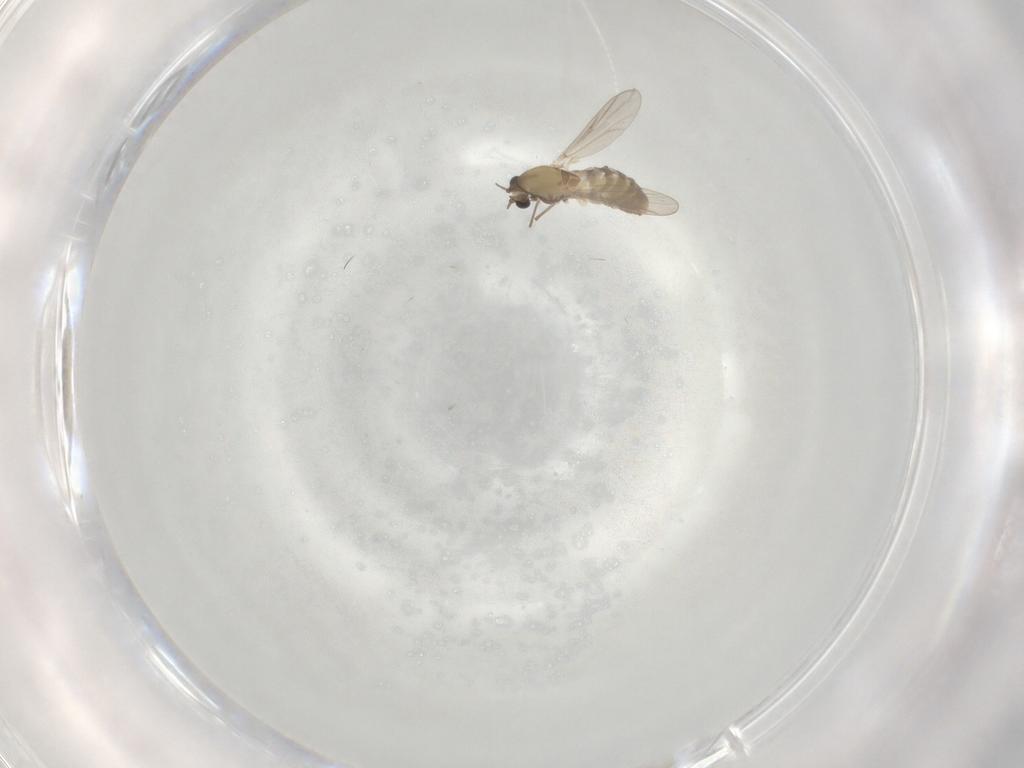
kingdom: Animalia
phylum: Arthropoda
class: Insecta
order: Diptera
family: Chironomidae
